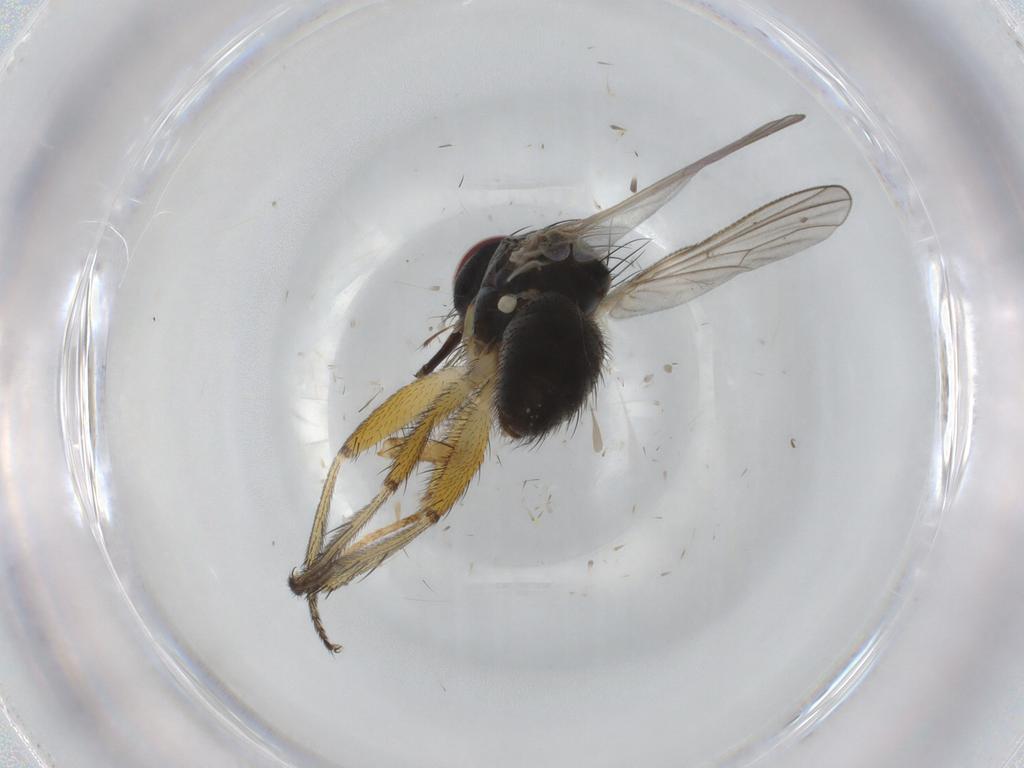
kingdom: Animalia
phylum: Arthropoda
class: Insecta
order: Diptera
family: Muscidae
